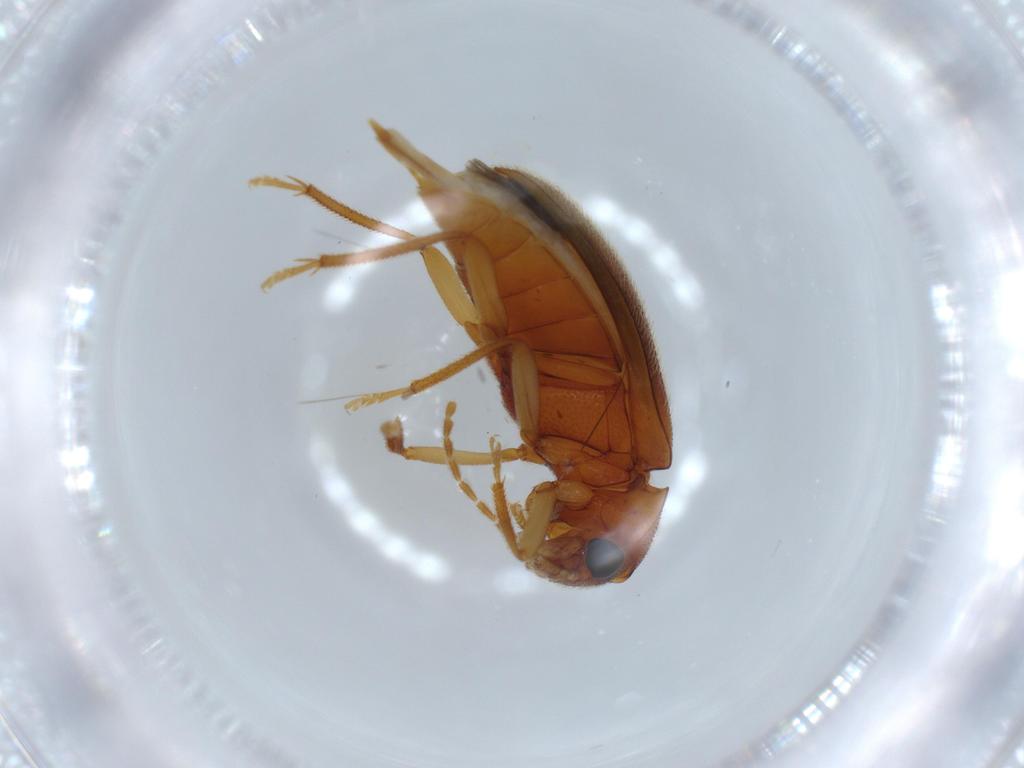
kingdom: Animalia
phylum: Arthropoda
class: Insecta
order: Coleoptera
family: Ptilodactylidae
